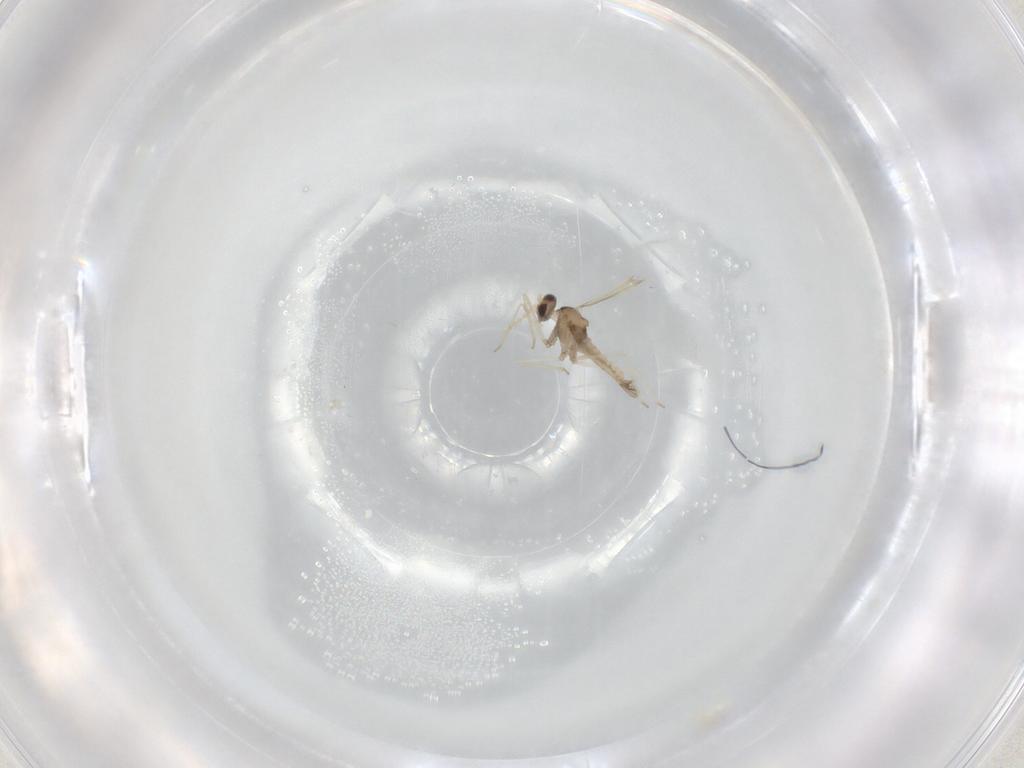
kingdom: Animalia
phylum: Arthropoda
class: Insecta
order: Diptera
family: Cecidomyiidae
